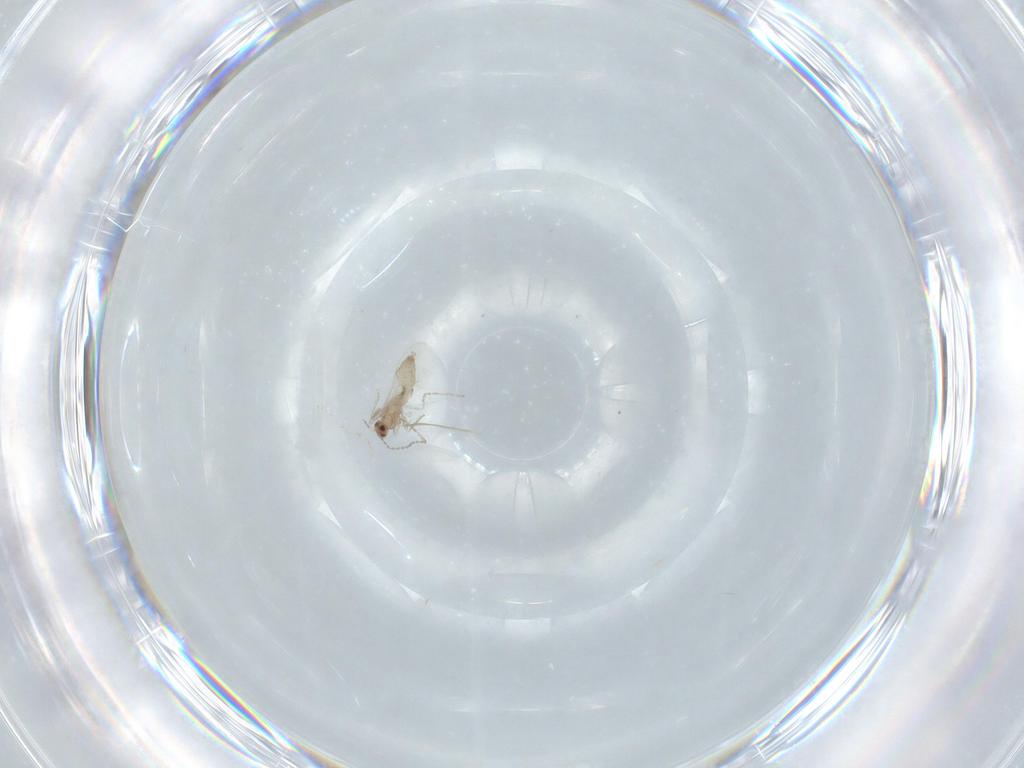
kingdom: Animalia
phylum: Arthropoda
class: Insecta
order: Diptera
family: Cecidomyiidae
